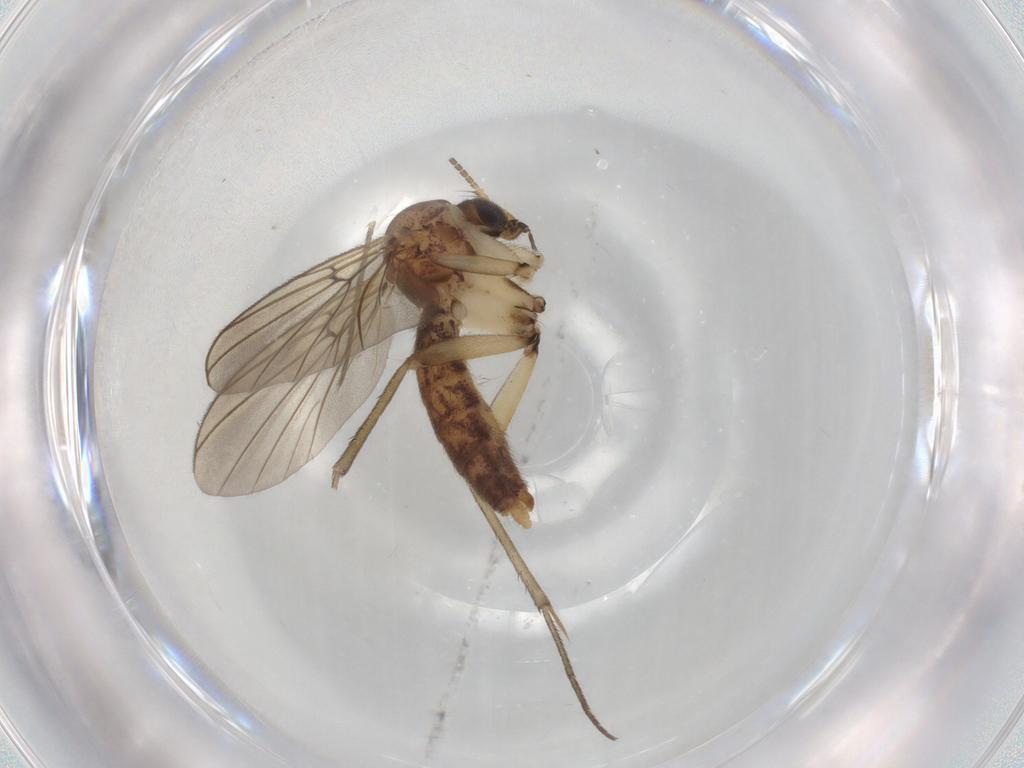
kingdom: Animalia
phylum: Arthropoda
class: Insecta
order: Diptera
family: Mycetophilidae
